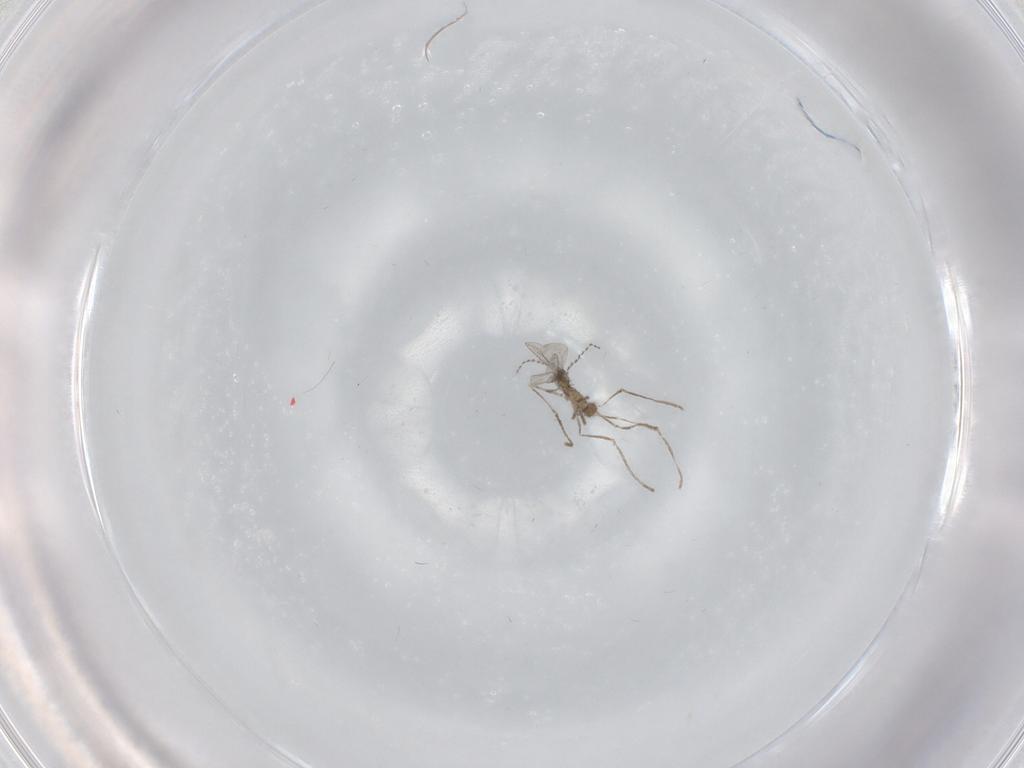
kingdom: Animalia
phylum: Arthropoda
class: Insecta
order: Diptera
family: Cecidomyiidae
